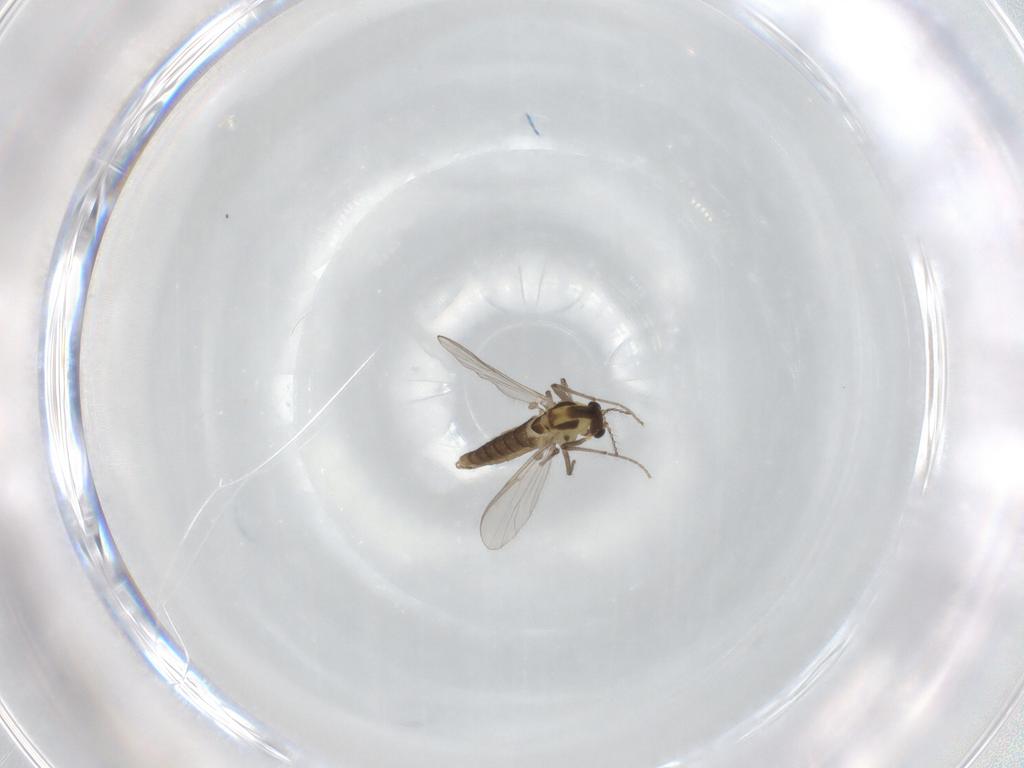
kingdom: Animalia
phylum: Arthropoda
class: Insecta
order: Diptera
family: Chironomidae
